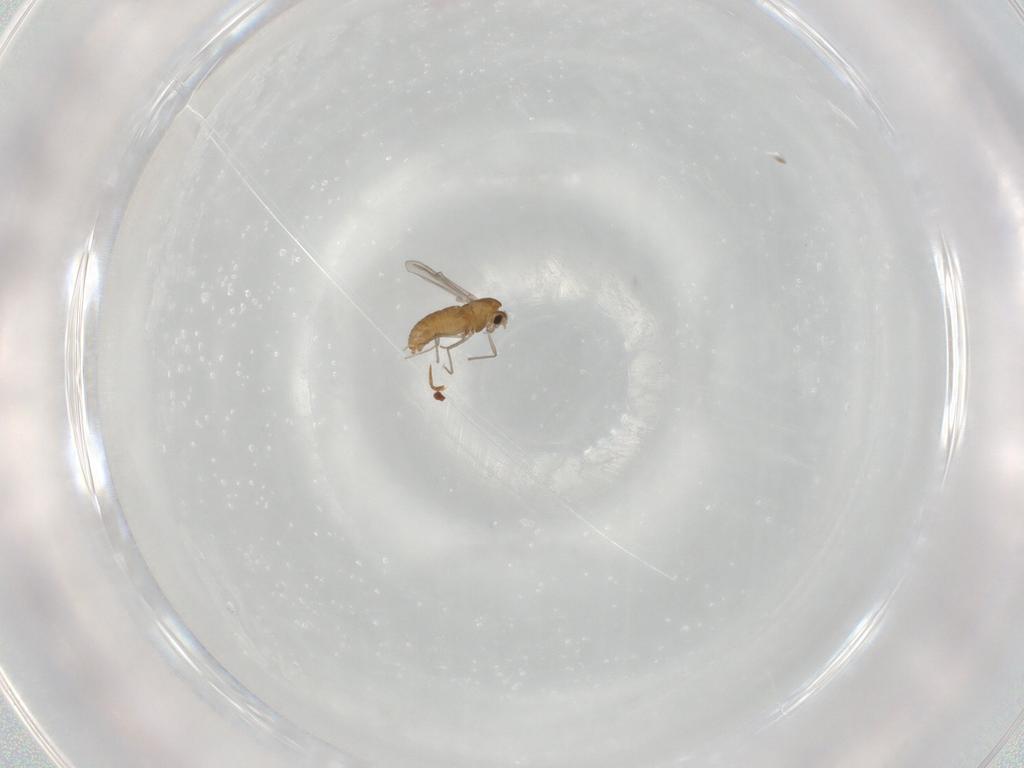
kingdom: Animalia
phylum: Arthropoda
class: Insecta
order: Diptera
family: Chironomidae
